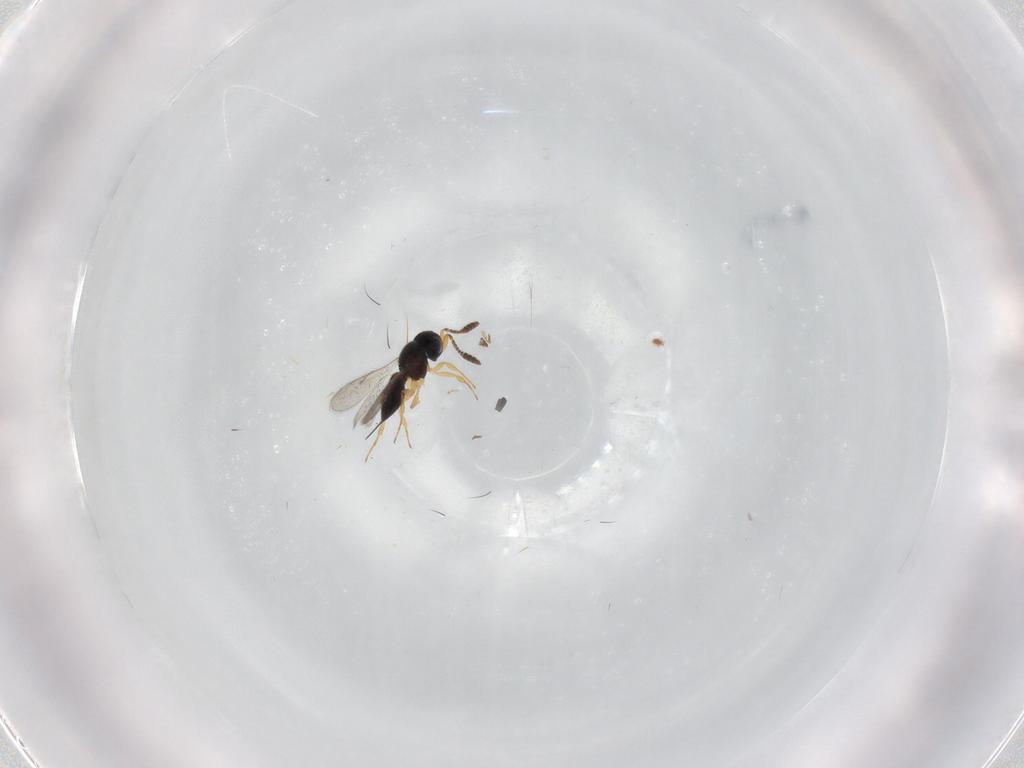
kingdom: Animalia
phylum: Arthropoda
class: Insecta
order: Hymenoptera
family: Scelionidae
